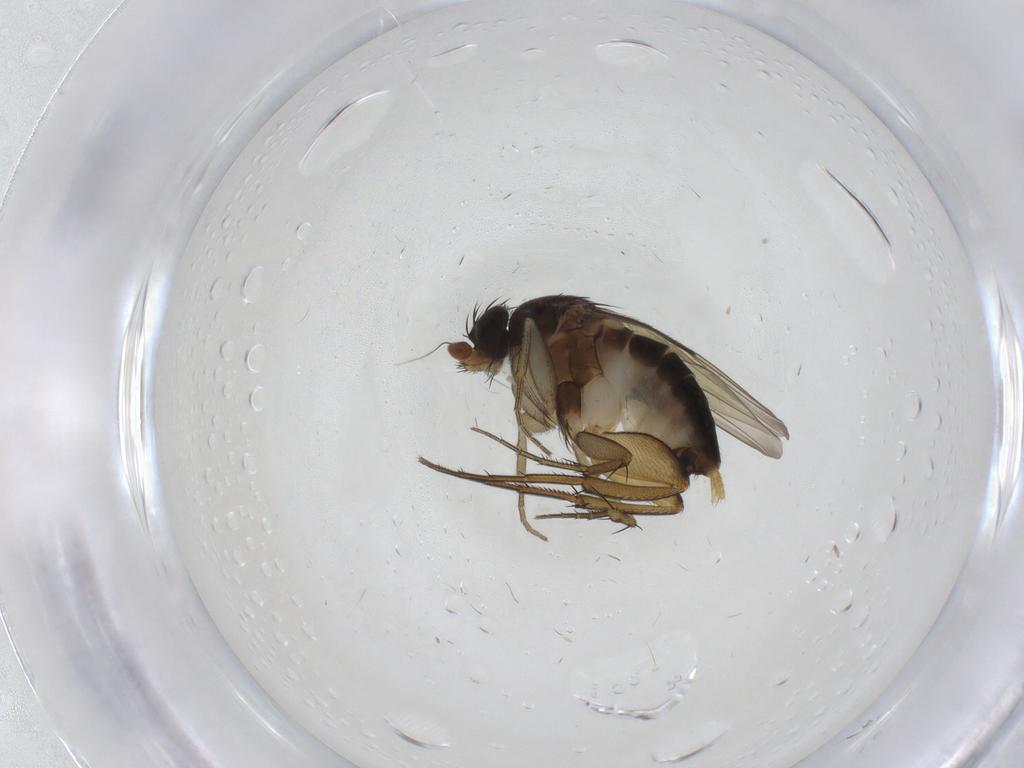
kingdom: Animalia
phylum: Arthropoda
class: Insecta
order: Diptera
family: Phoridae
